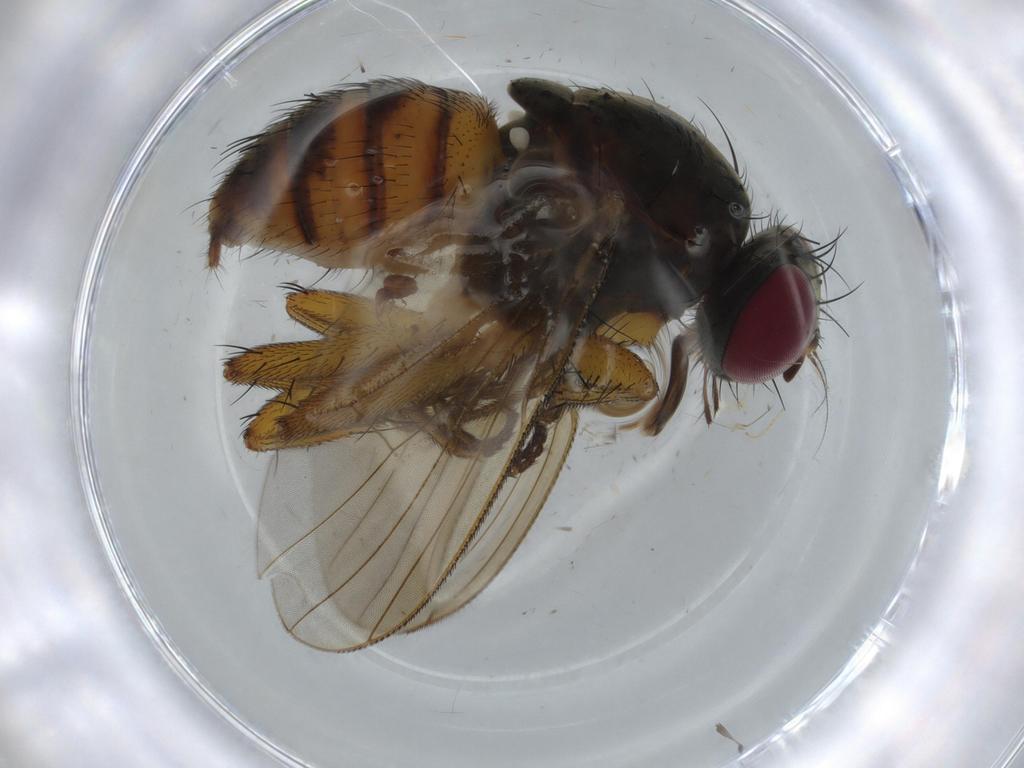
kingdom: Animalia
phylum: Arthropoda
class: Insecta
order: Diptera
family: Muscidae
